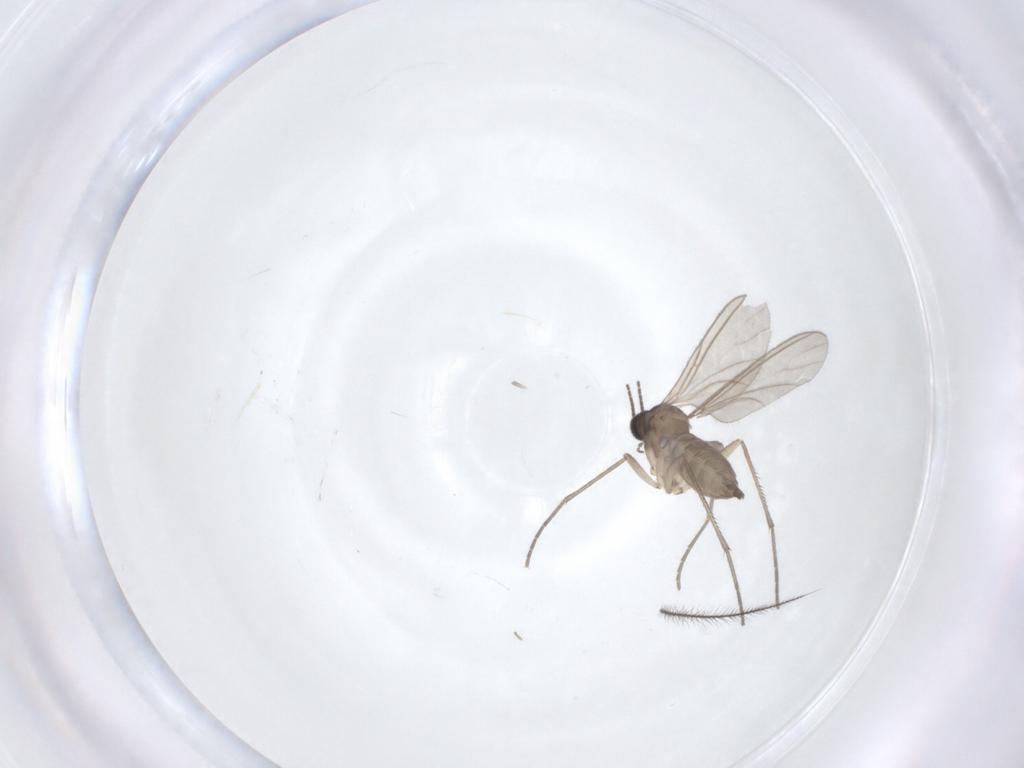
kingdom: Animalia
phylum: Arthropoda
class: Insecta
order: Diptera
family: Sciaridae
